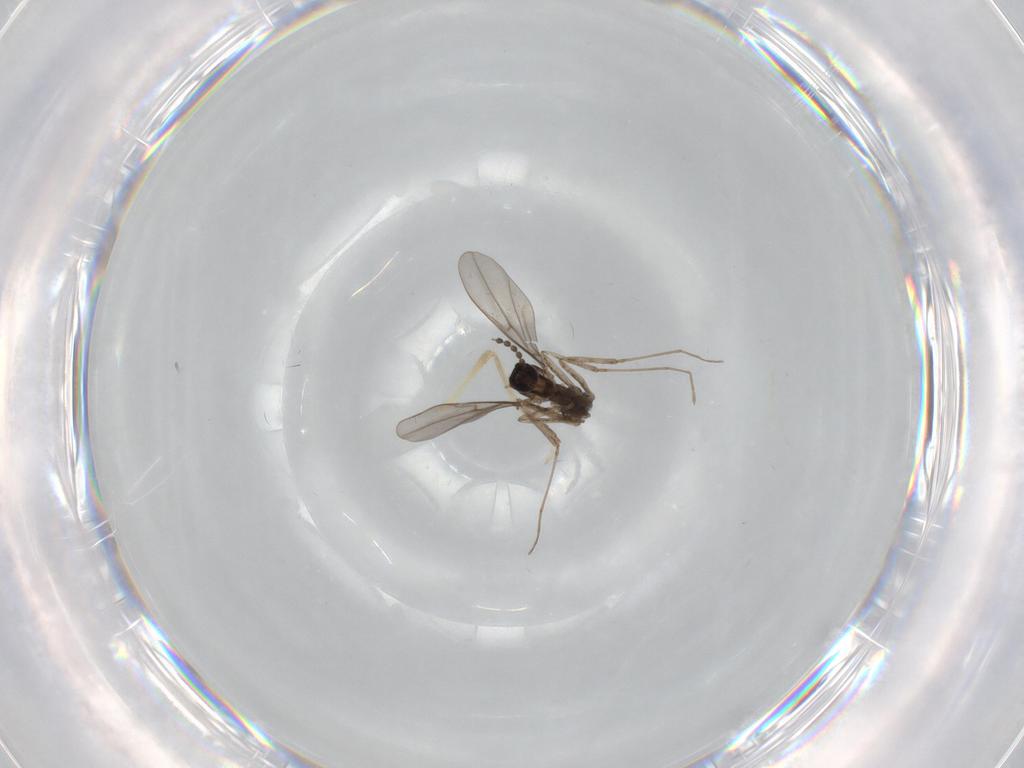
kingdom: Animalia
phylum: Arthropoda
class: Insecta
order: Diptera
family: Cecidomyiidae
